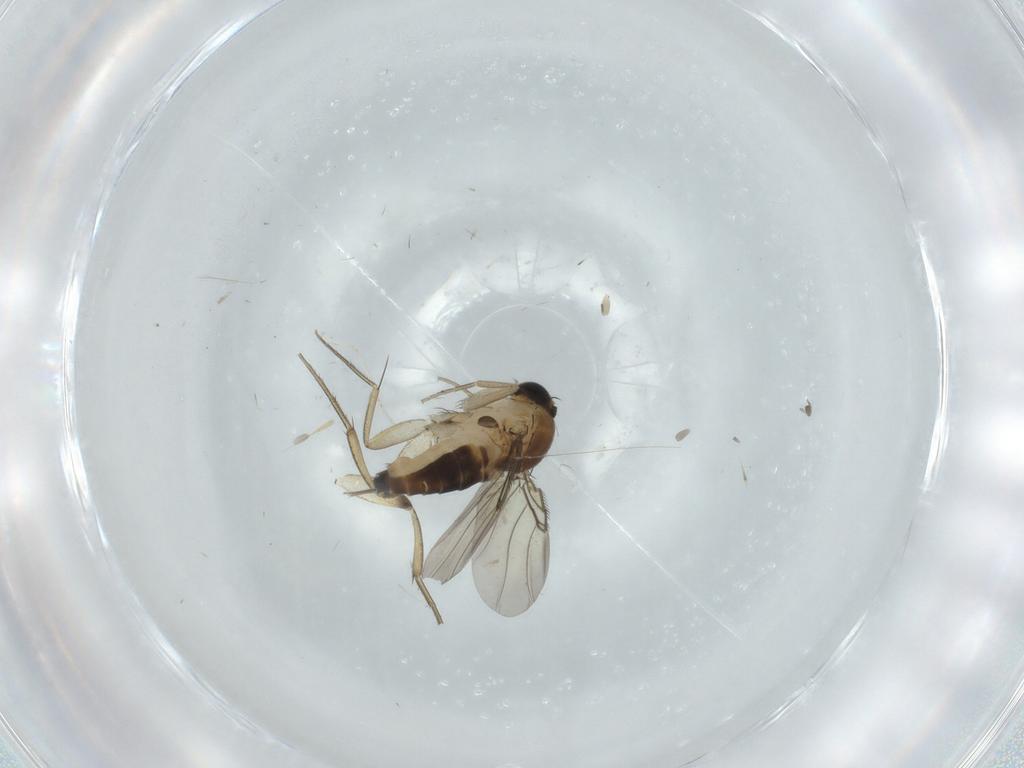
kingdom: Animalia
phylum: Arthropoda
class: Insecta
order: Diptera
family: Phoridae
